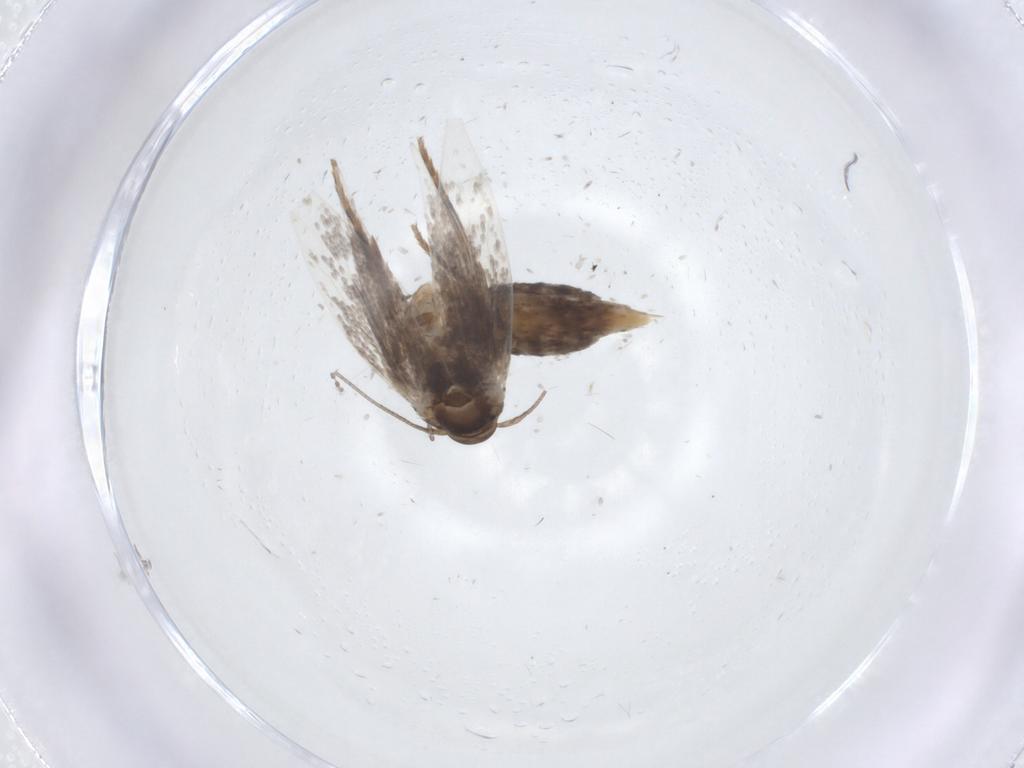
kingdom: Animalia
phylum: Arthropoda
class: Insecta
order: Lepidoptera
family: Elachistidae
